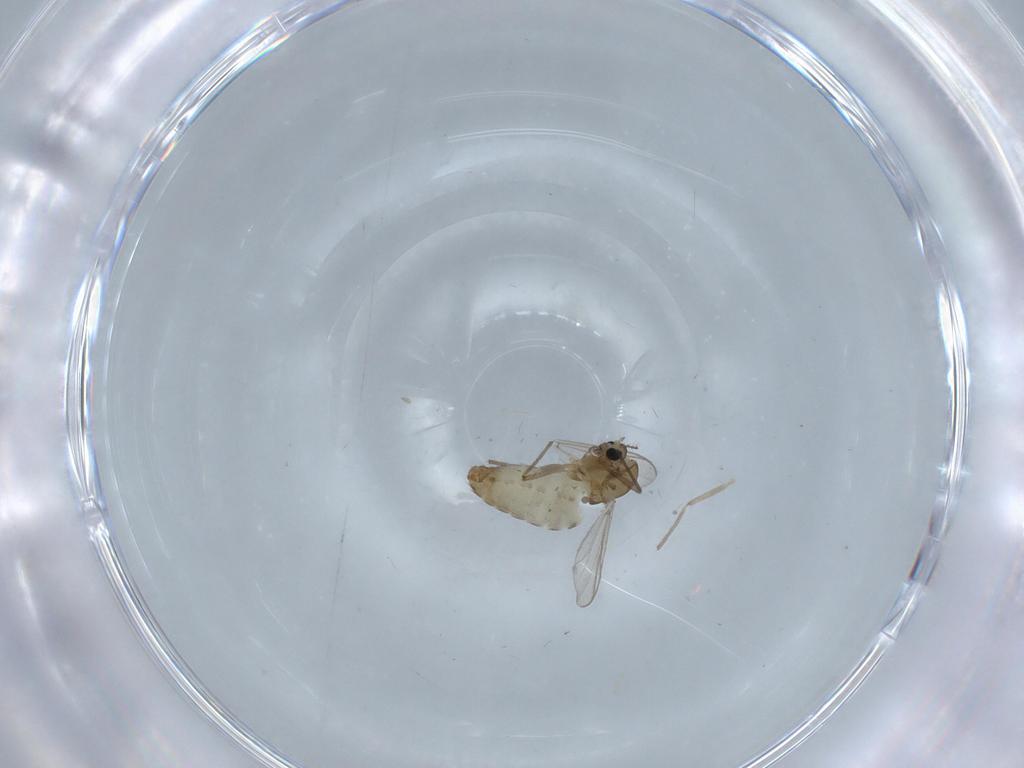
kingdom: Animalia
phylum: Arthropoda
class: Insecta
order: Diptera
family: Chironomidae
